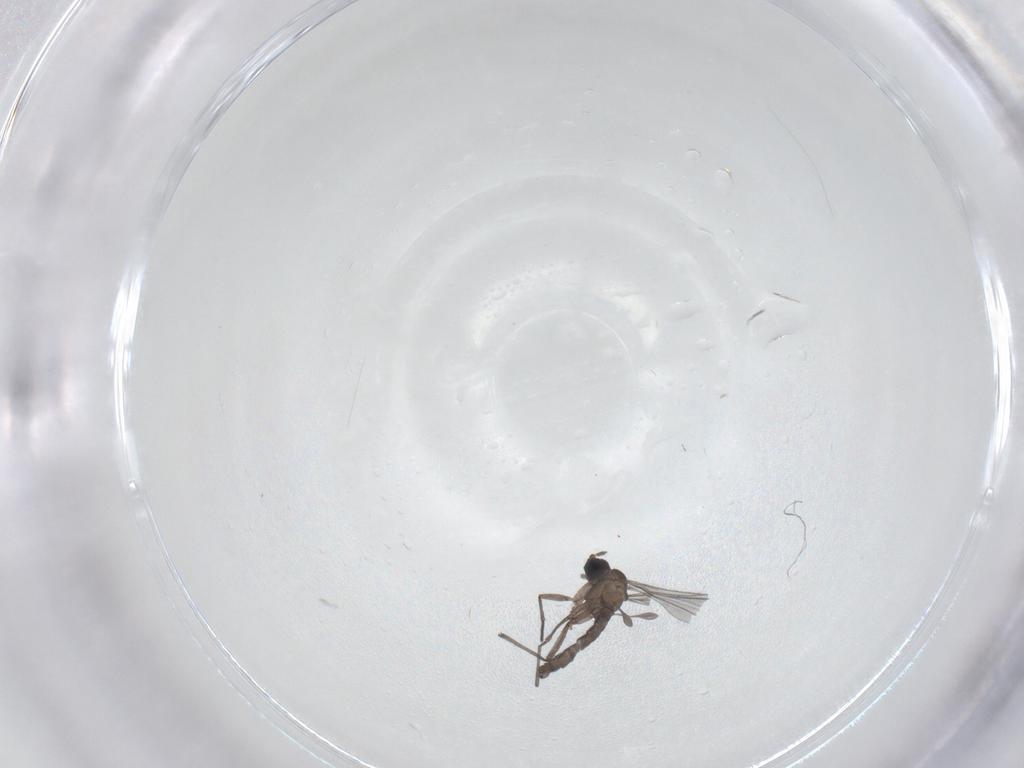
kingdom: Animalia
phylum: Arthropoda
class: Insecta
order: Diptera
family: Sciaridae
